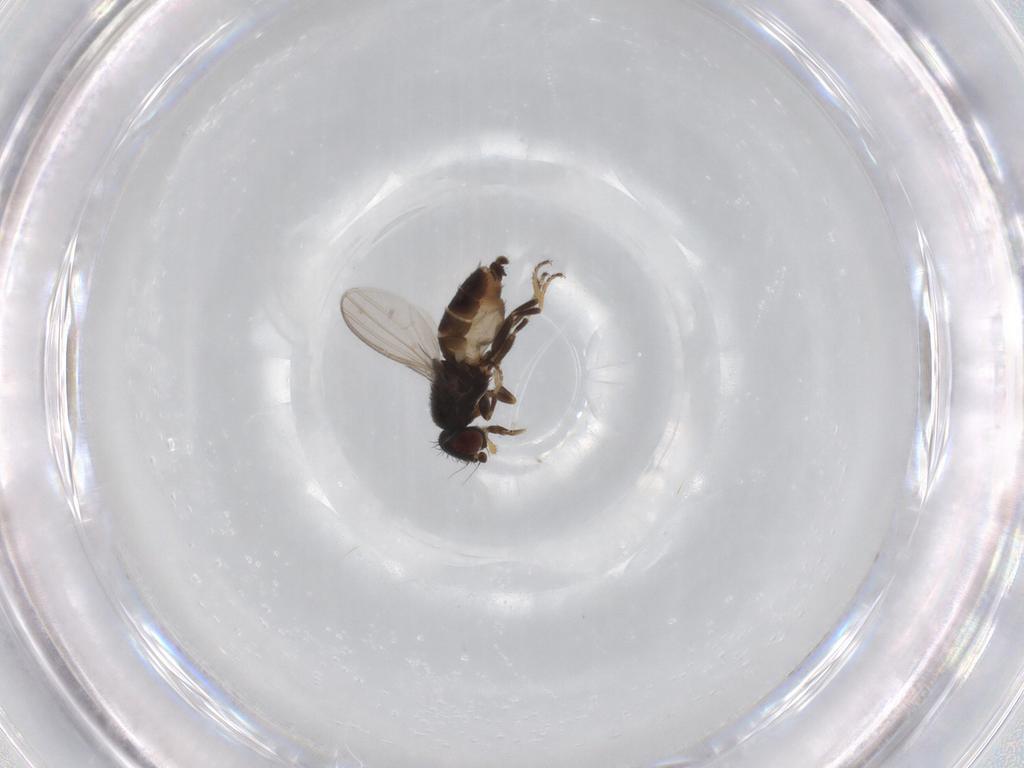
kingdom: Animalia
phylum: Arthropoda
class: Insecta
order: Diptera
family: Milichiidae
